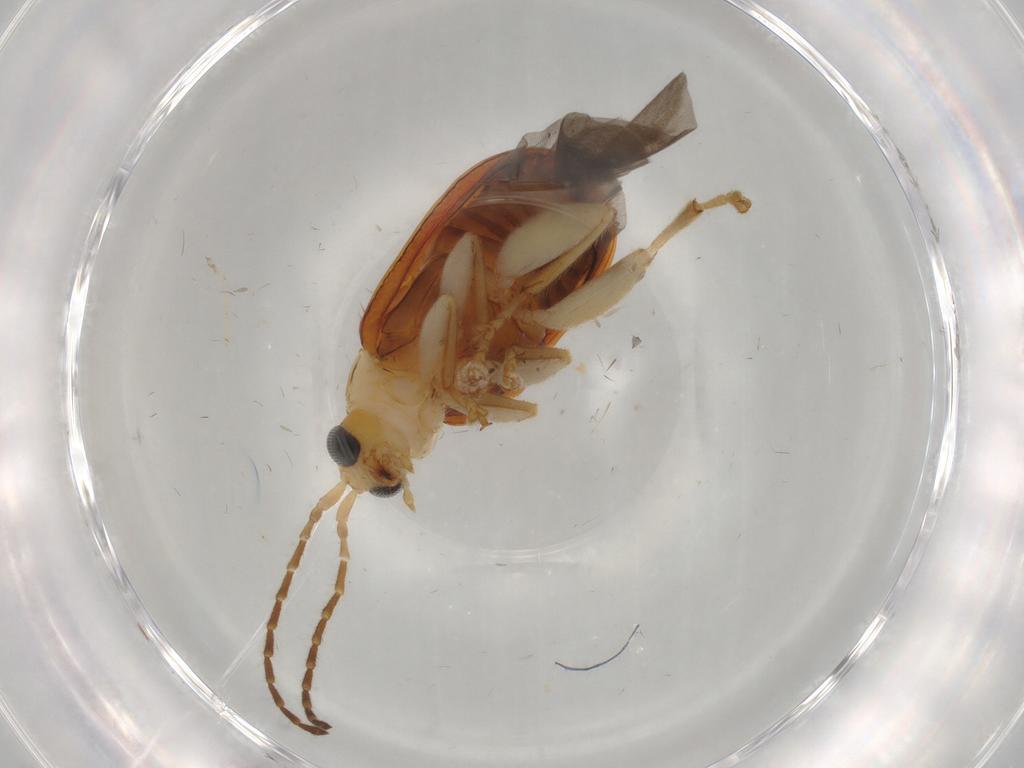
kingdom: Animalia
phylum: Arthropoda
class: Insecta
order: Coleoptera
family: Chrysomelidae
